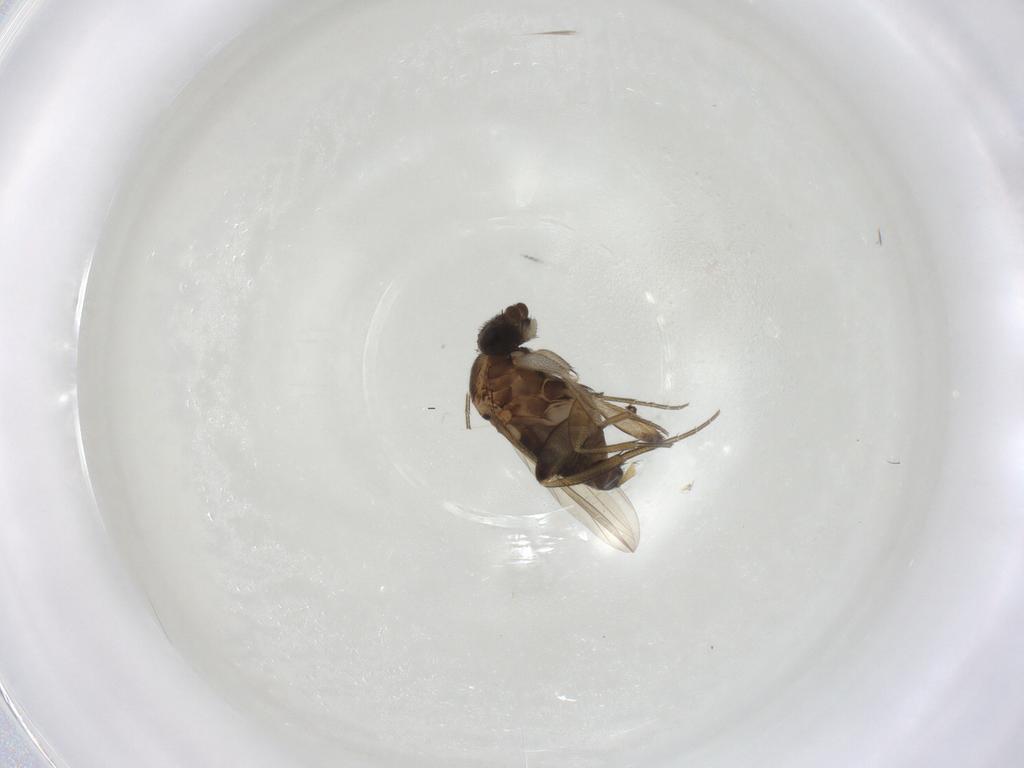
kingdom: Animalia
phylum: Arthropoda
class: Insecta
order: Diptera
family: Phoridae
